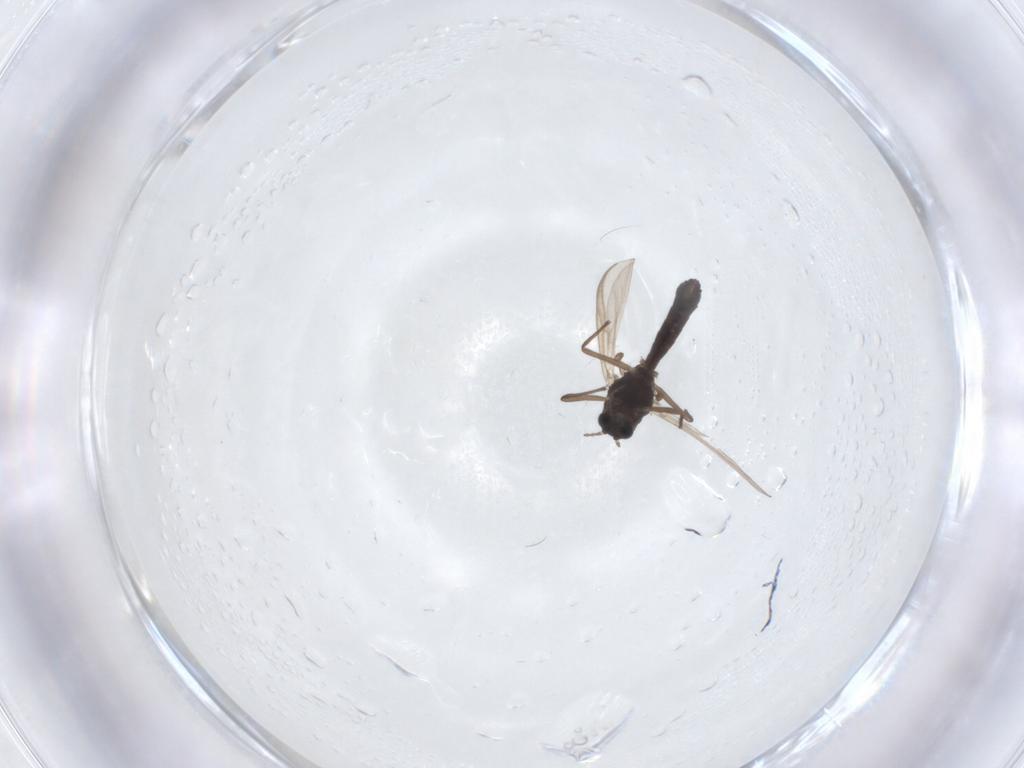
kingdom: Animalia
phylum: Arthropoda
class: Insecta
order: Diptera
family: Chironomidae
